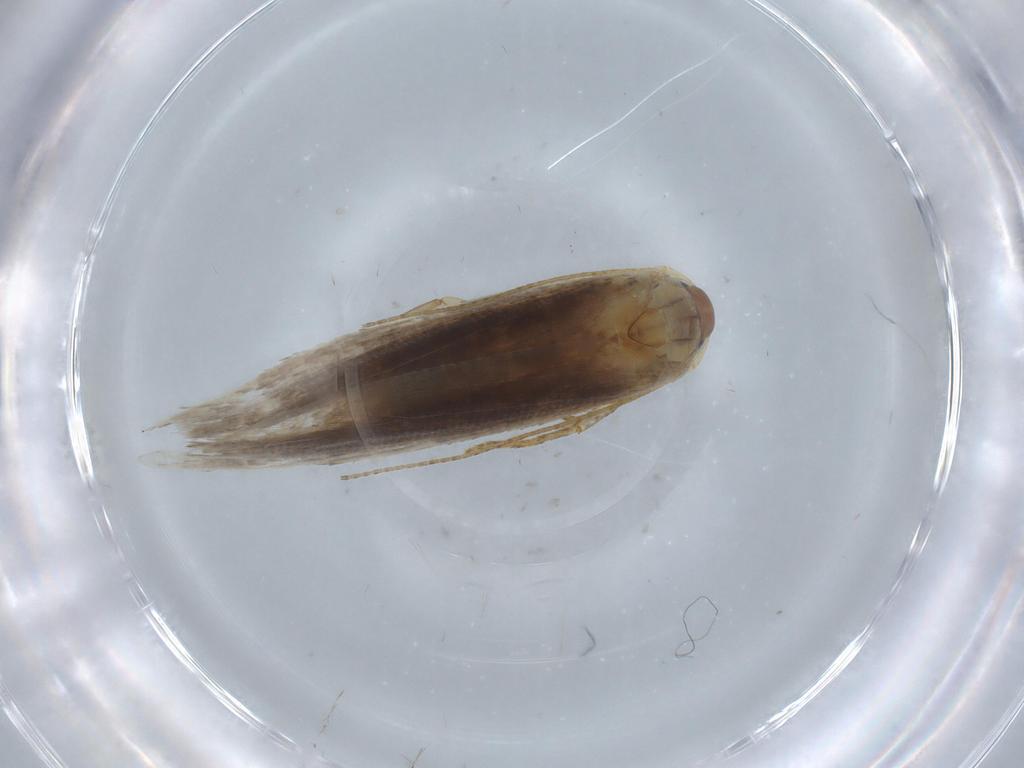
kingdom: Animalia
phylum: Arthropoda
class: Insecta
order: Lepidoptera
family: Gelechiidae
